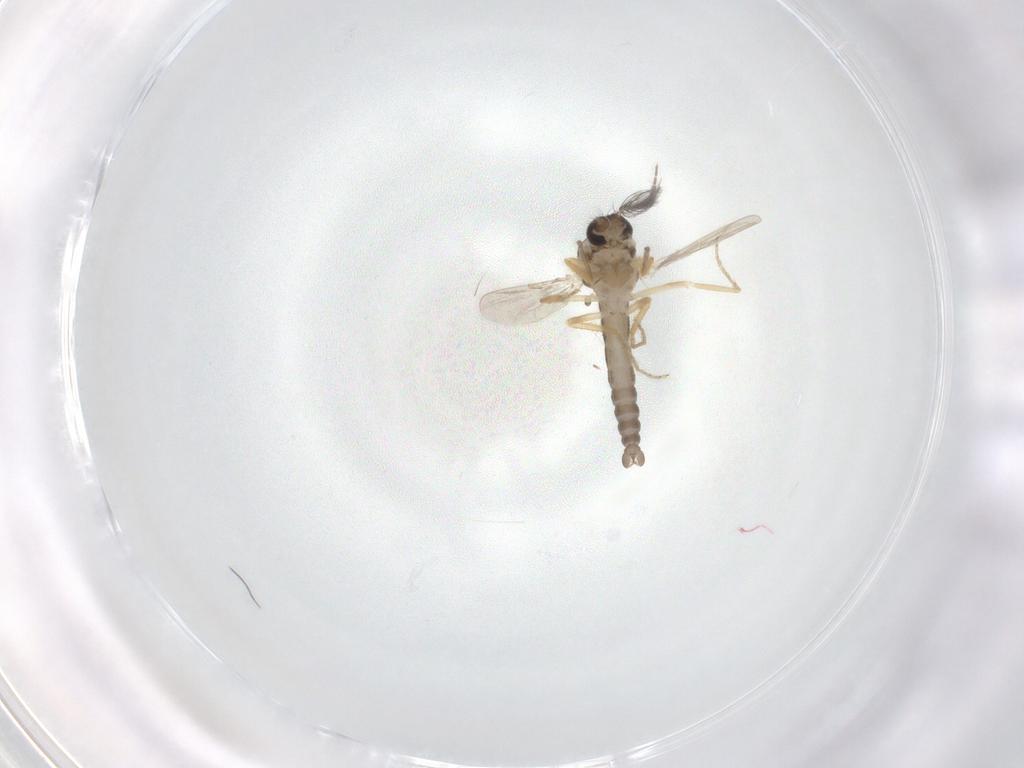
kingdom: Animalia
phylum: Arthropoda
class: Insecta
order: Diptera
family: Ceratopogonidae
